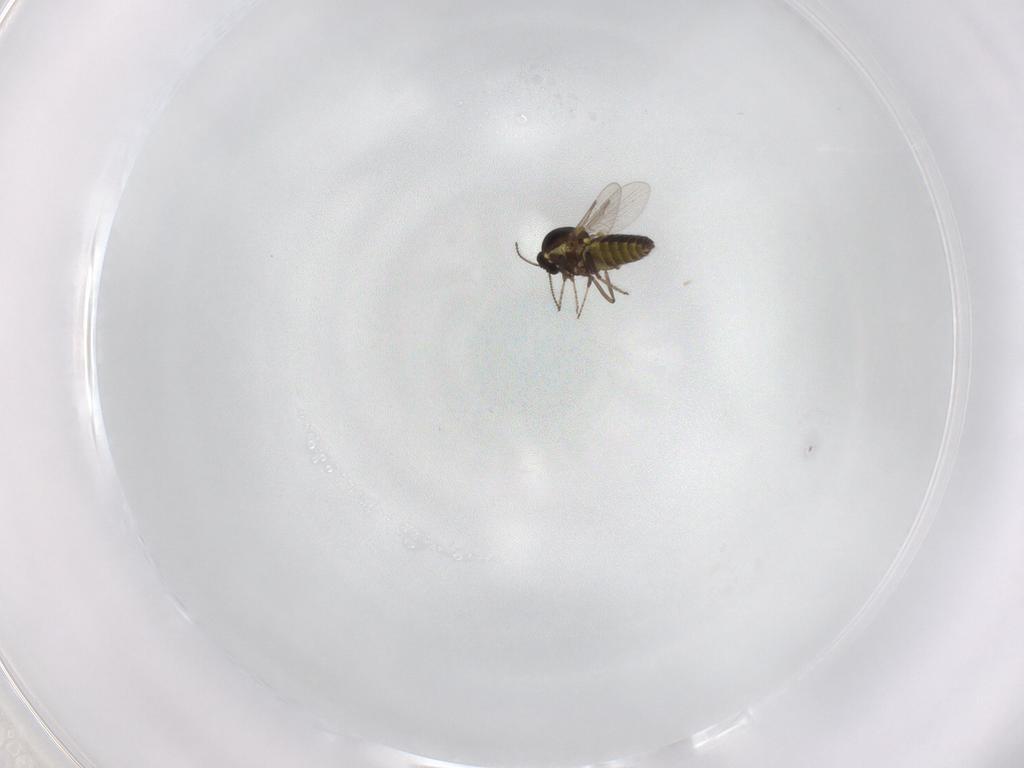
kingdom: Animalia
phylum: Arthropoda
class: Insecta
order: Diptera
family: Ceratopogonidae
